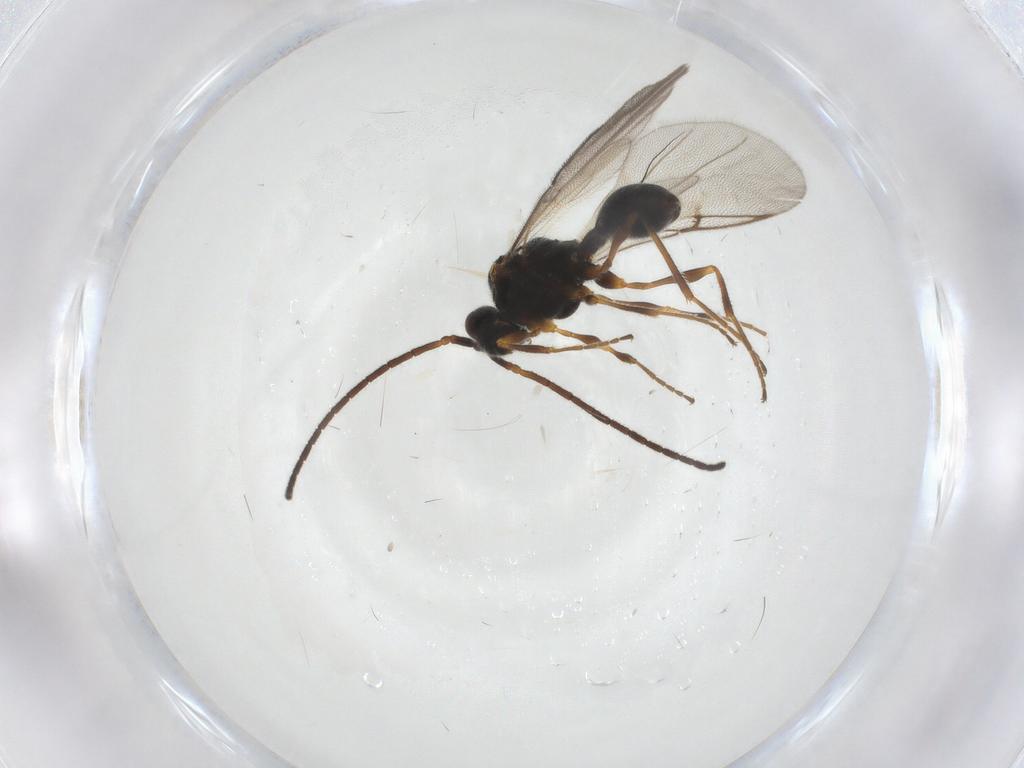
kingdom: Animalia
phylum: Arthropoda
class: Insecta
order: Hymenoptera
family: Diapriidae
